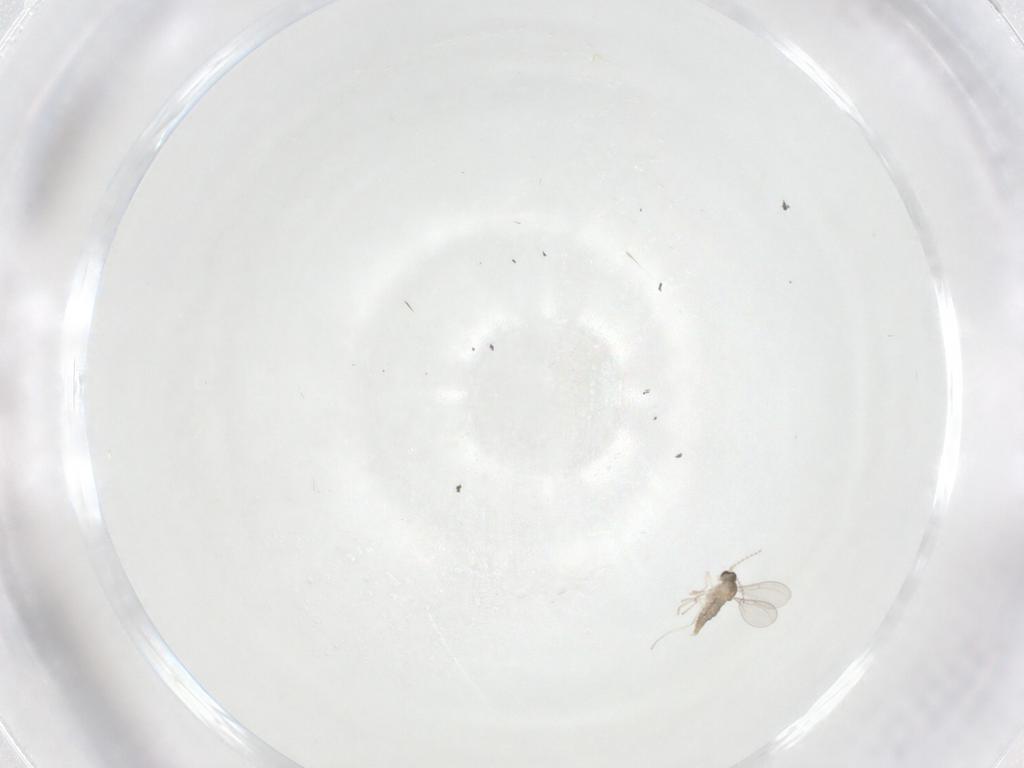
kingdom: Animalia
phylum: Arthropoda
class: Insecta
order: Diptera
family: Cecidomyiidae
